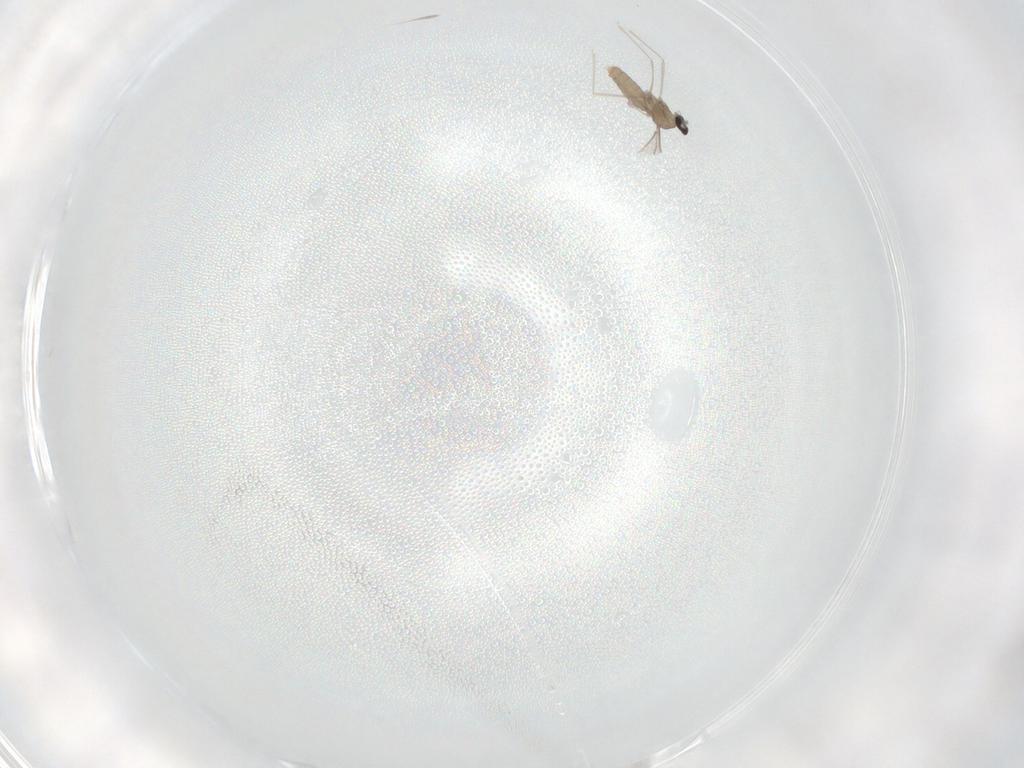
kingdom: Animalia
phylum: Arthropoda
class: Insecta
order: Diptera
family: Cecidomyiidae
